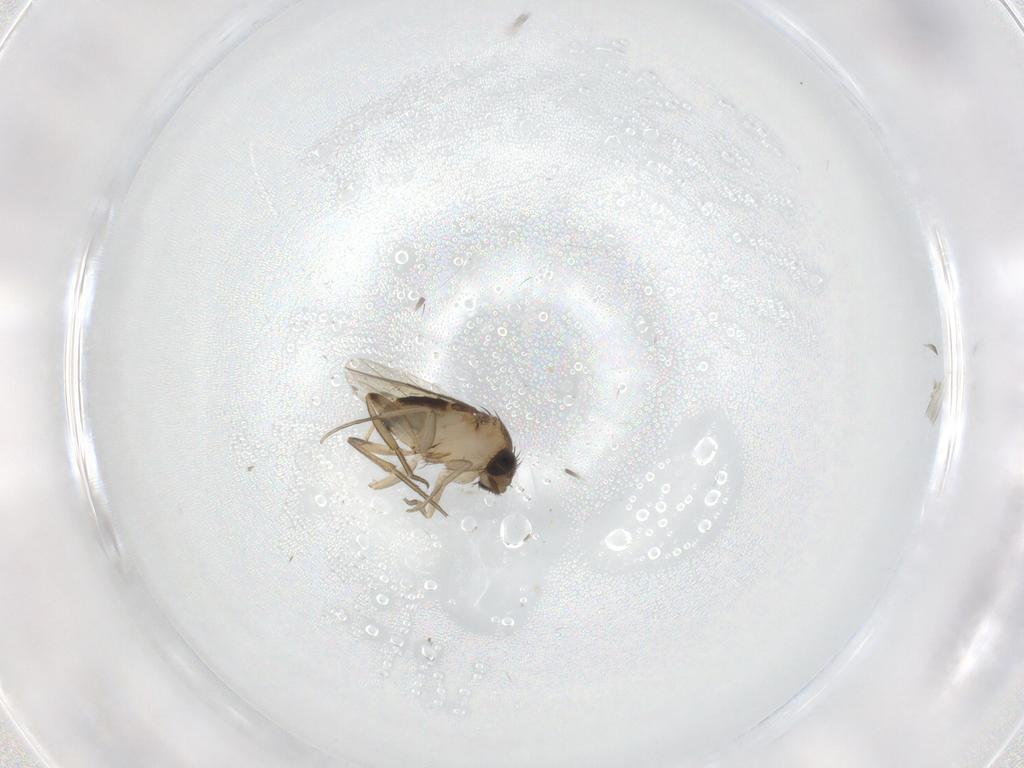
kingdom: Animalia
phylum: Arthropoda
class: Insecta
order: Diptera
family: Phoridae
